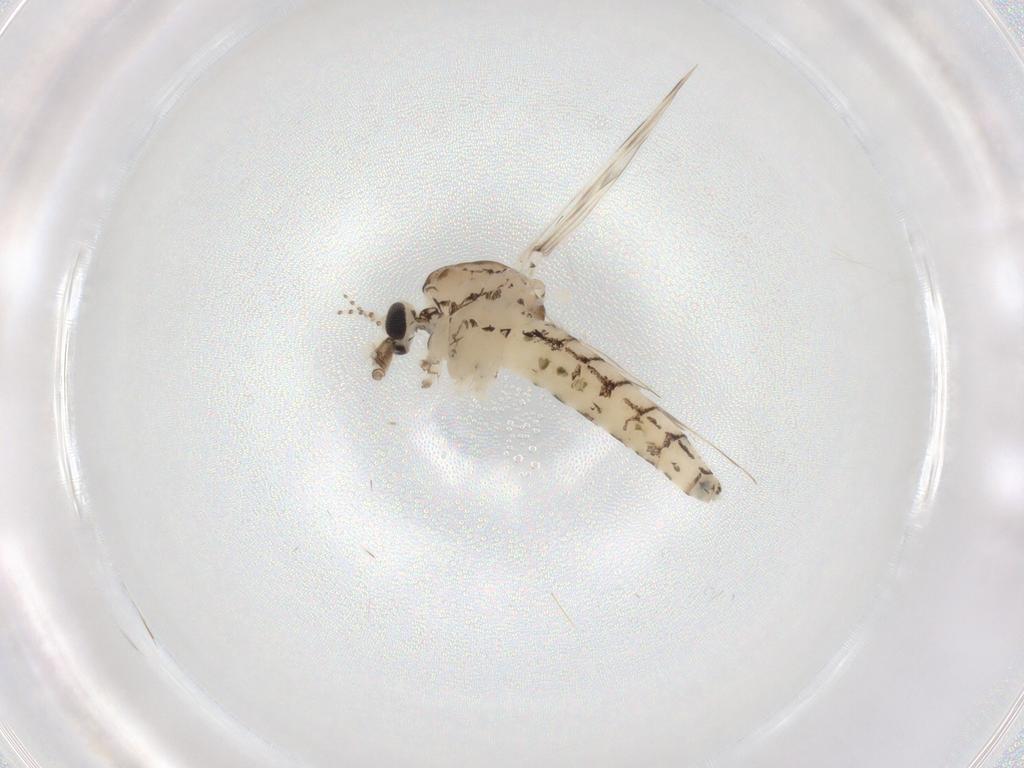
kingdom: Animalia
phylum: Arthropoda
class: Insecta
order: Diptera
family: Chaoboridae
